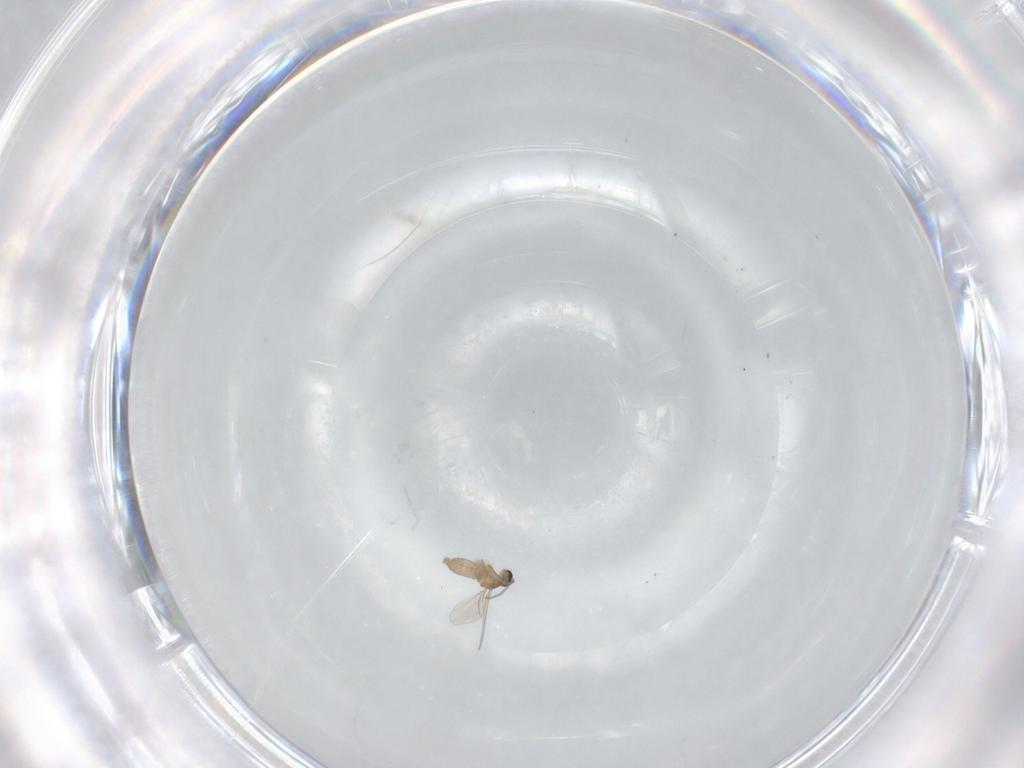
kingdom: Animalia
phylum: Arthropoda
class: Insecta
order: Diptera
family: Cecidomyiidae
